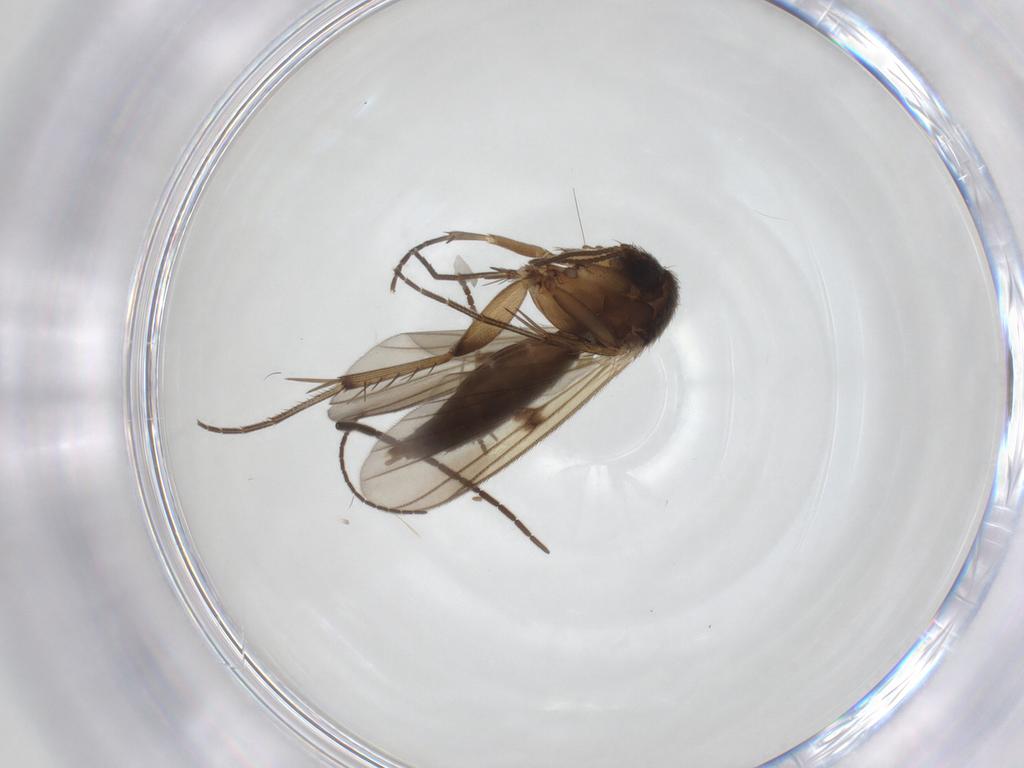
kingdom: Animalia
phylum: Arthropoda
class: Insecta
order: Diptera
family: Mycetophilidae
